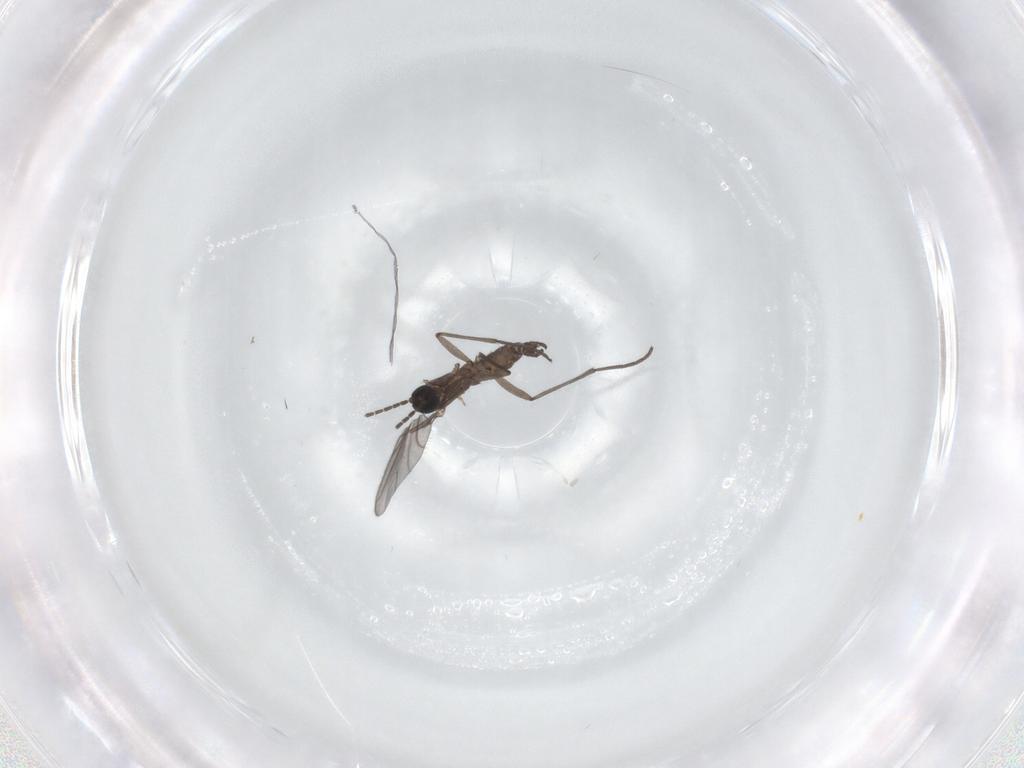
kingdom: Animalia
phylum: Arthropoda
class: Insecta
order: Diptera
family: Sciaridae
